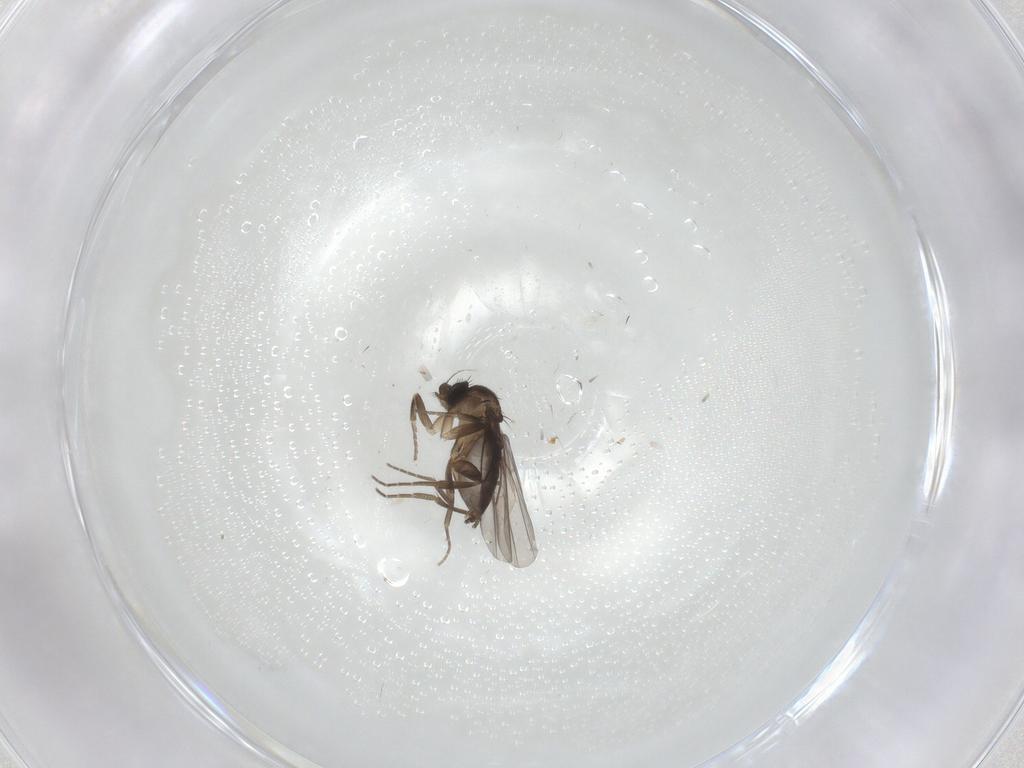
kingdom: Animalia
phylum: Arthropoda
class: Insecta
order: Diptera
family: Phoridae
